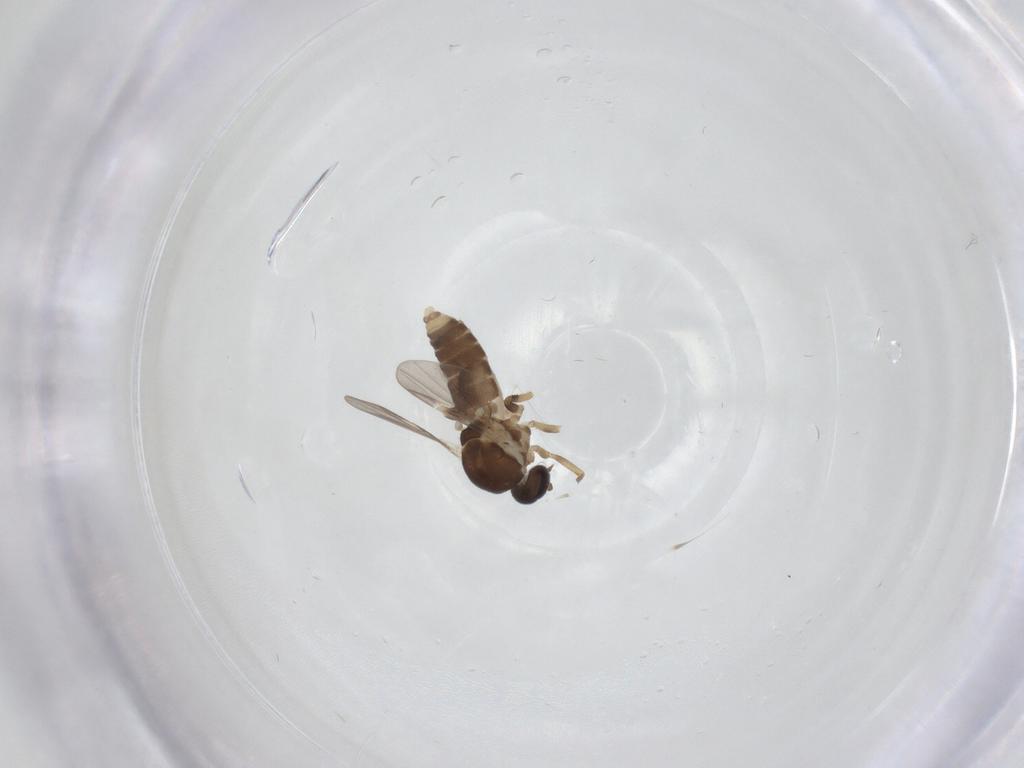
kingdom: Animalia
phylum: Arthropoda
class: Insecta
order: Diptera
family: Ceratopogonidae
